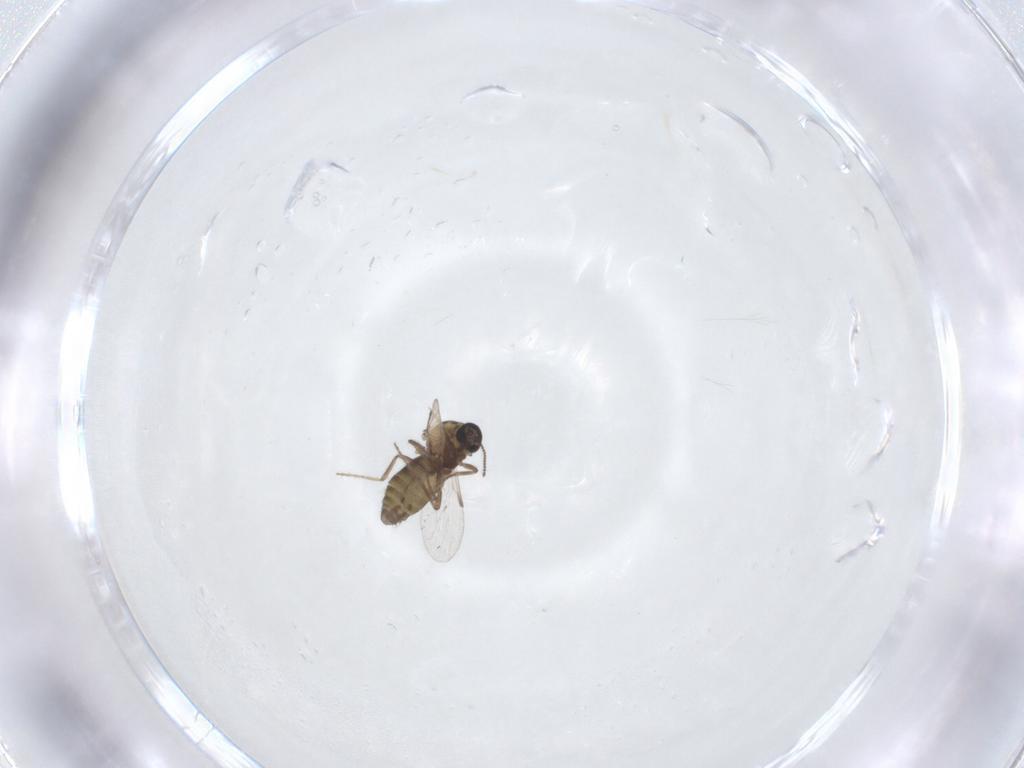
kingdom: Animalia
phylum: Arthropoda
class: Insecta
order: Diptera
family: Ceratopogonidae
